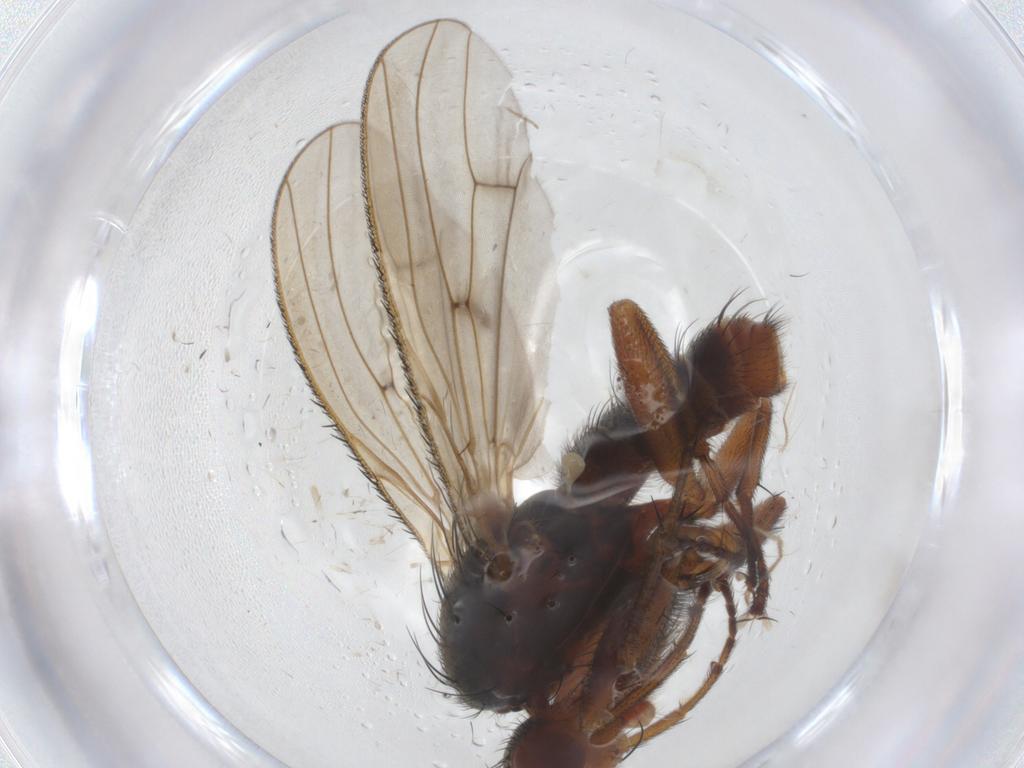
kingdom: Animalia
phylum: Arthropoda
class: Insecta
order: Diptera
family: Heleomyzidae
